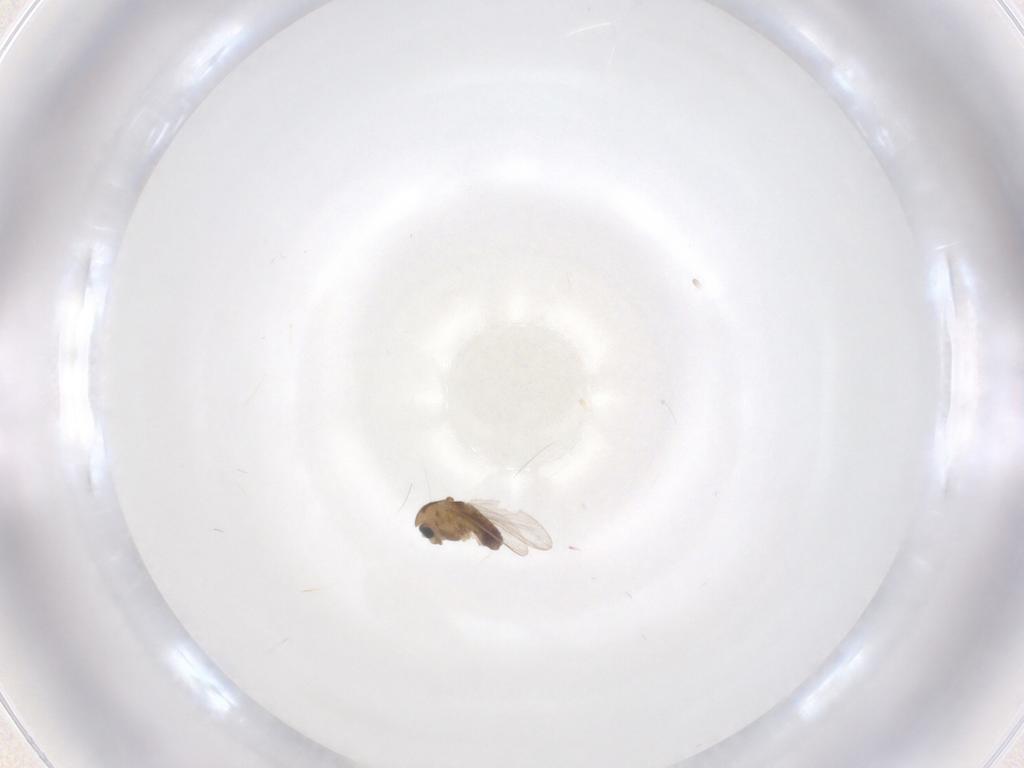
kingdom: Animalia
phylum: Arthropoda
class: Insecta
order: Diptera
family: Chironomidae
